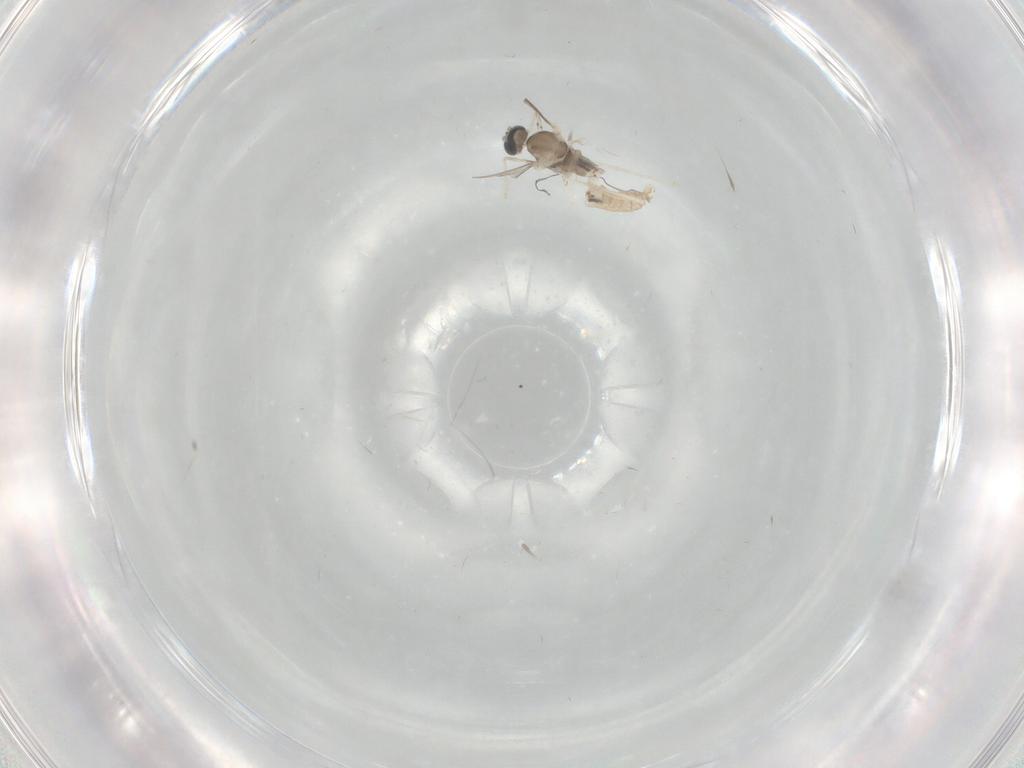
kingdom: Animalia
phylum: Arthropoda
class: Insecta
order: Diptera
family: Cecidomyiidae
